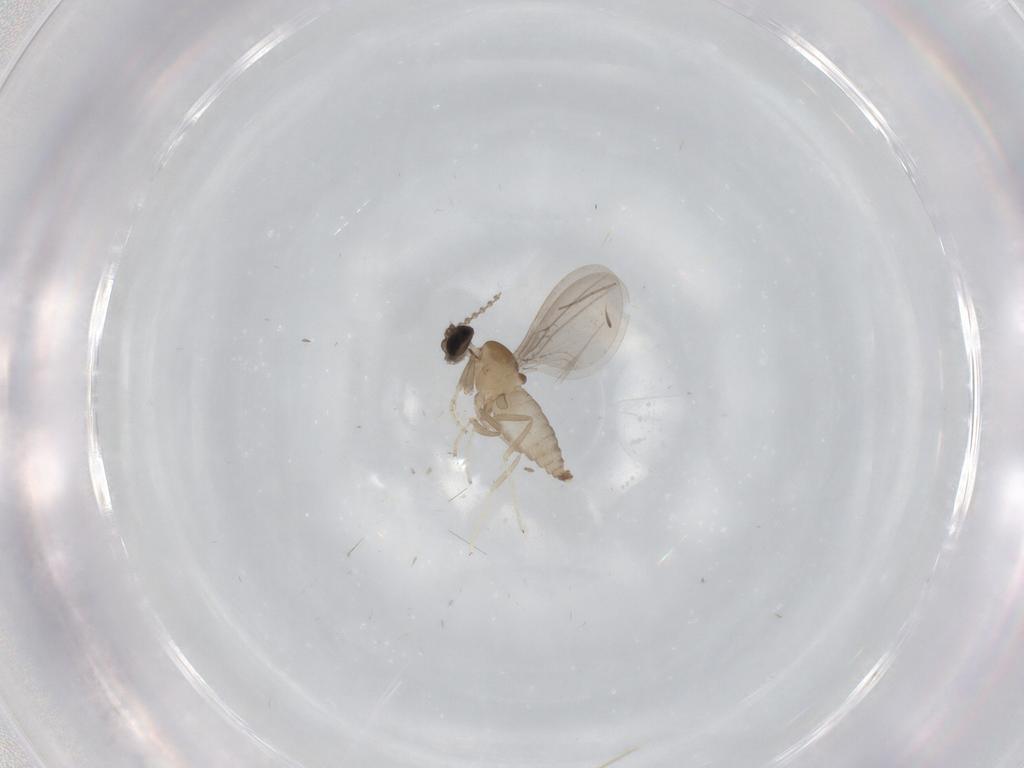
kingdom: Animalia
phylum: Arthropoda
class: Insecta
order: Diptera
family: Cecidomyiidae
